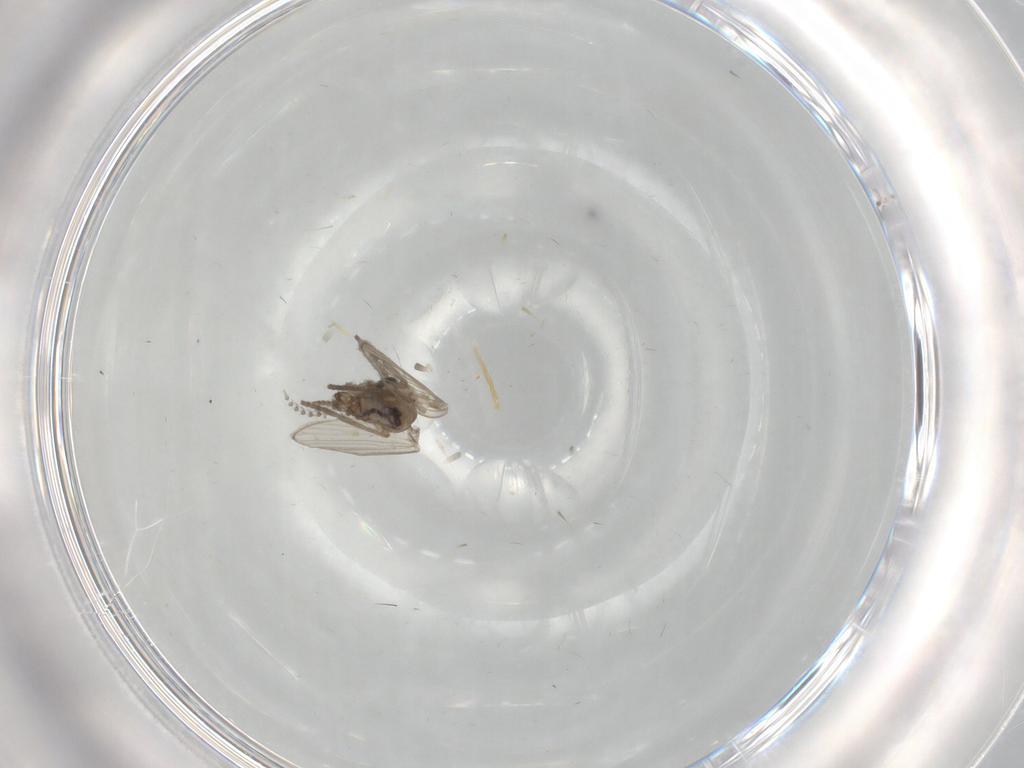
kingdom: Animalia
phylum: Arthropoda
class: Insecta
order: Diptera
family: Psychodidae
